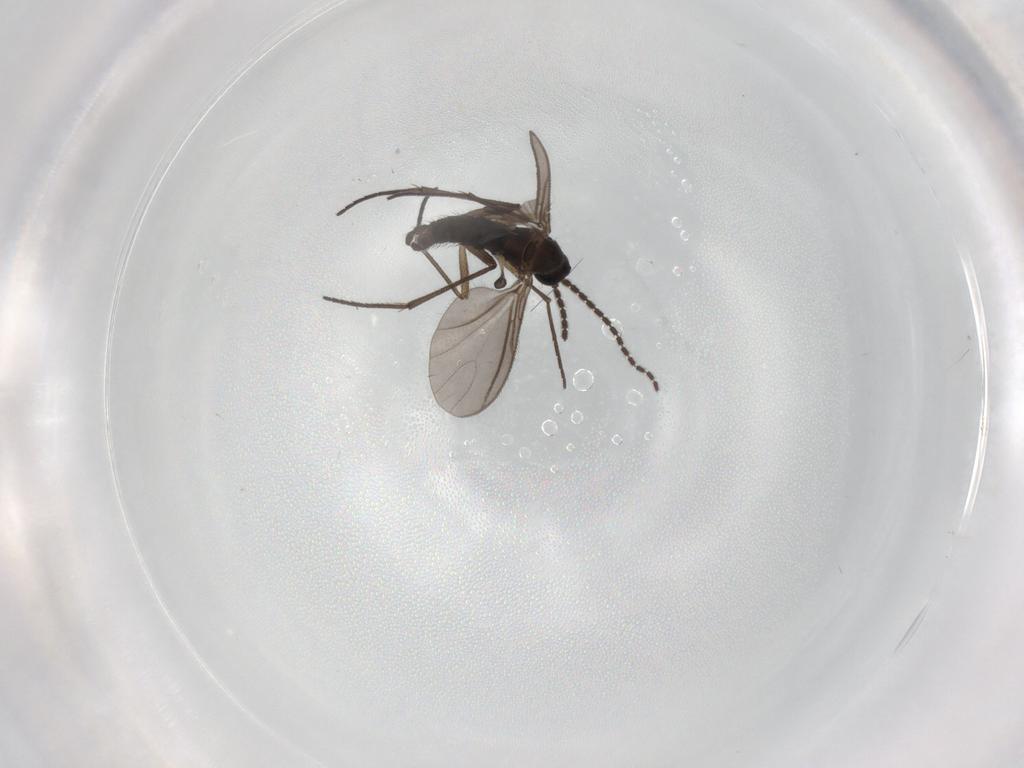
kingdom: Animalia
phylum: Arthropoda
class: Insecta
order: Diptera
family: Sciaridae
